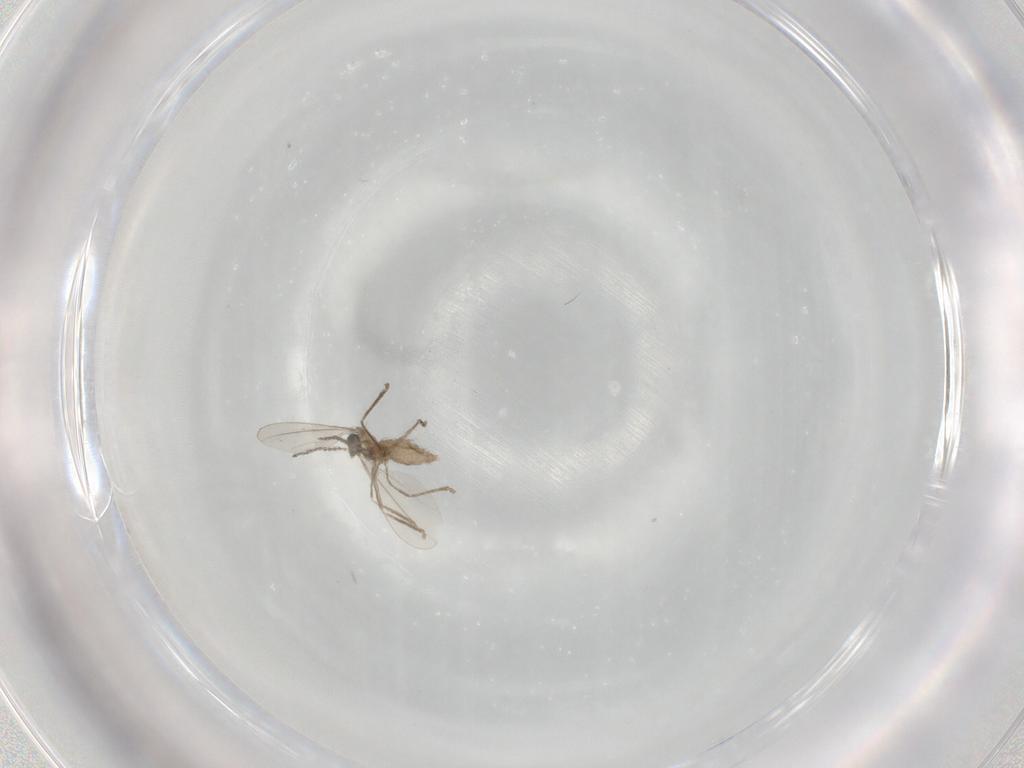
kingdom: Animalia
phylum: Arthropoda
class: Insecta
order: Diptera
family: Cecidomyiidae
